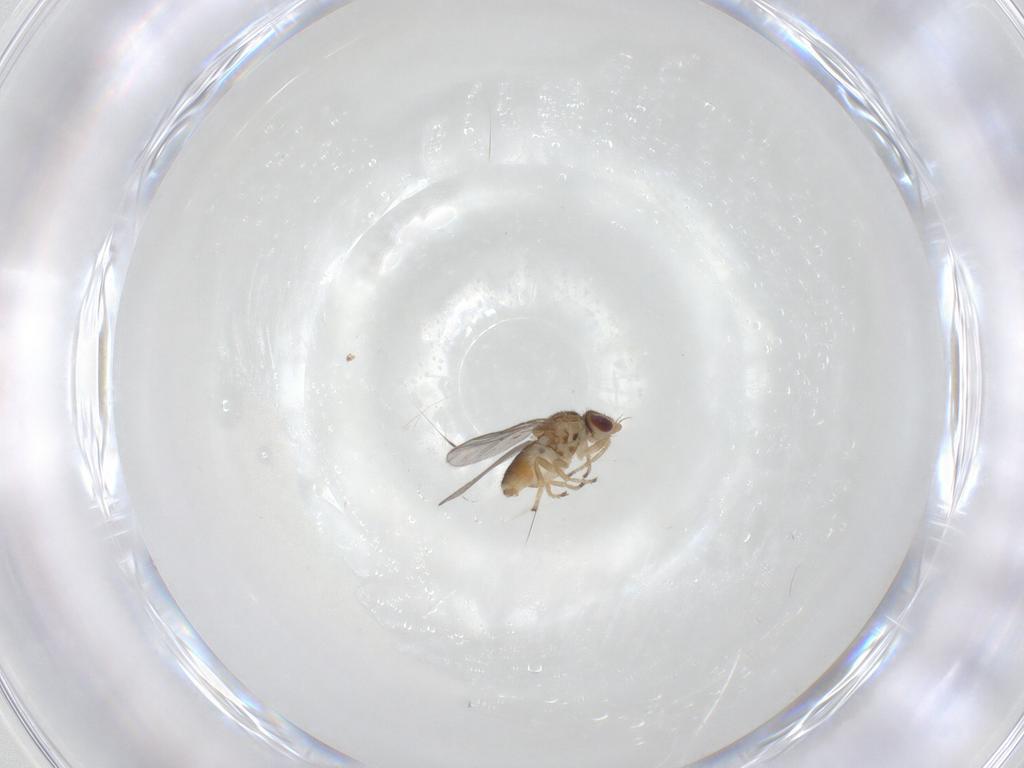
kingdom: Animalia
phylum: Arthropoda
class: Insecta
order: Diptera
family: Chloropidae
